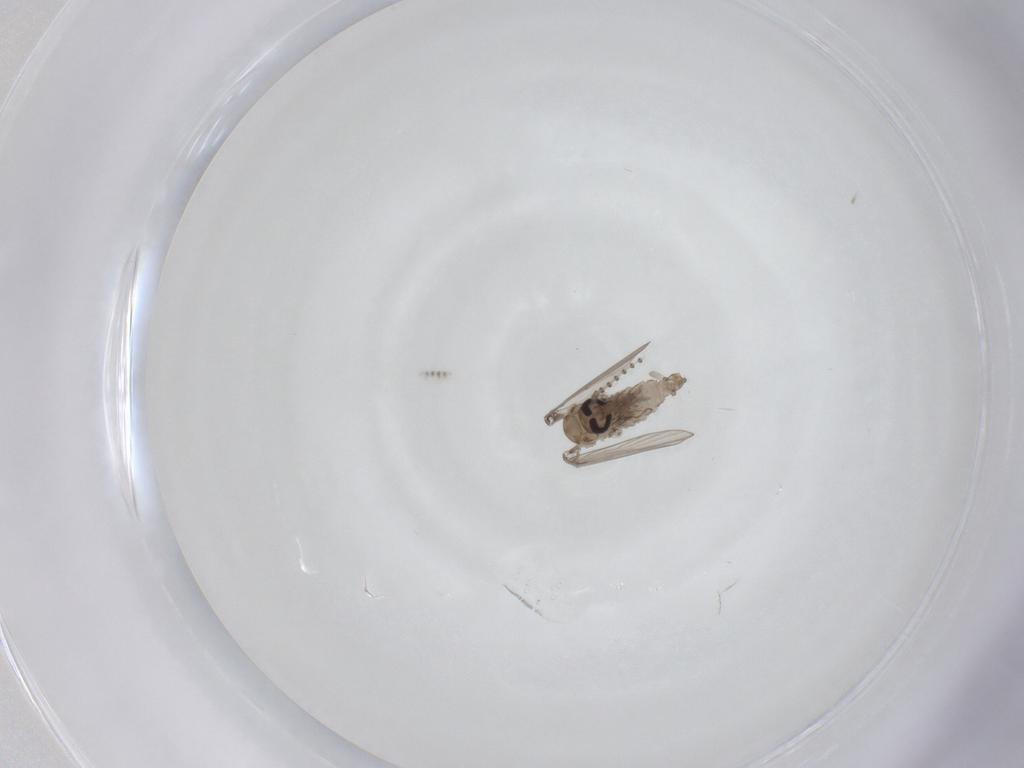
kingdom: Animalia
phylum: Arthropoda
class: Insecta
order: Diptera
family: Psychodidae
